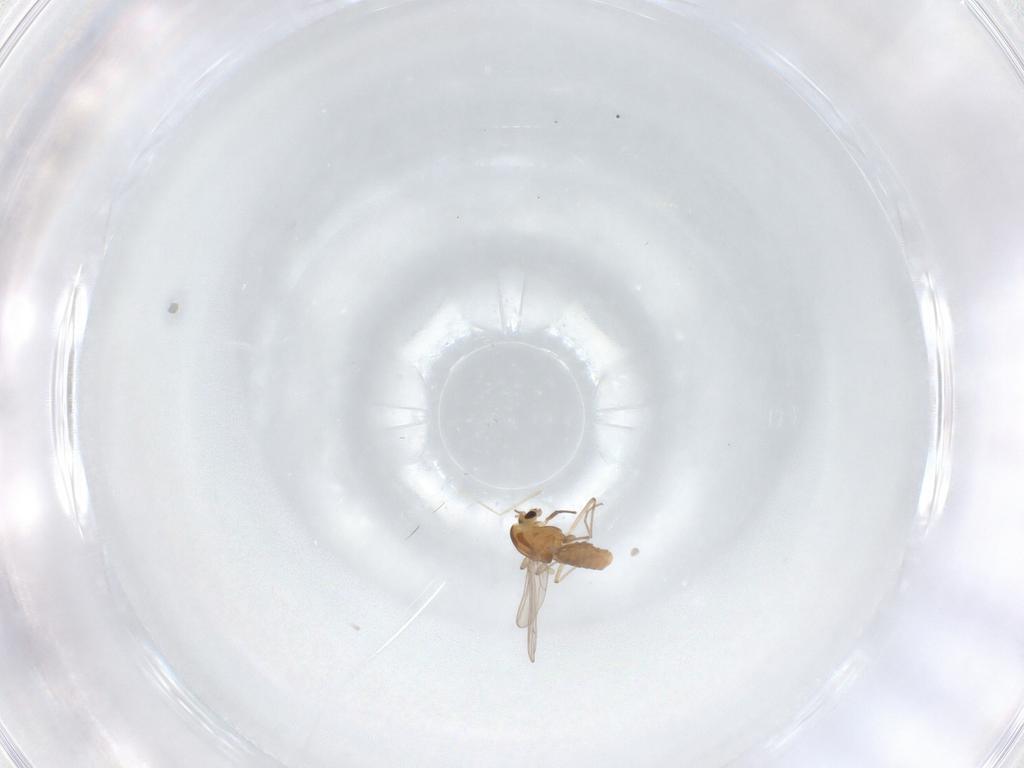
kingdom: Animalia
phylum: Arthropoda
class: Insecta
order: Diptera
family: Chironomidae
